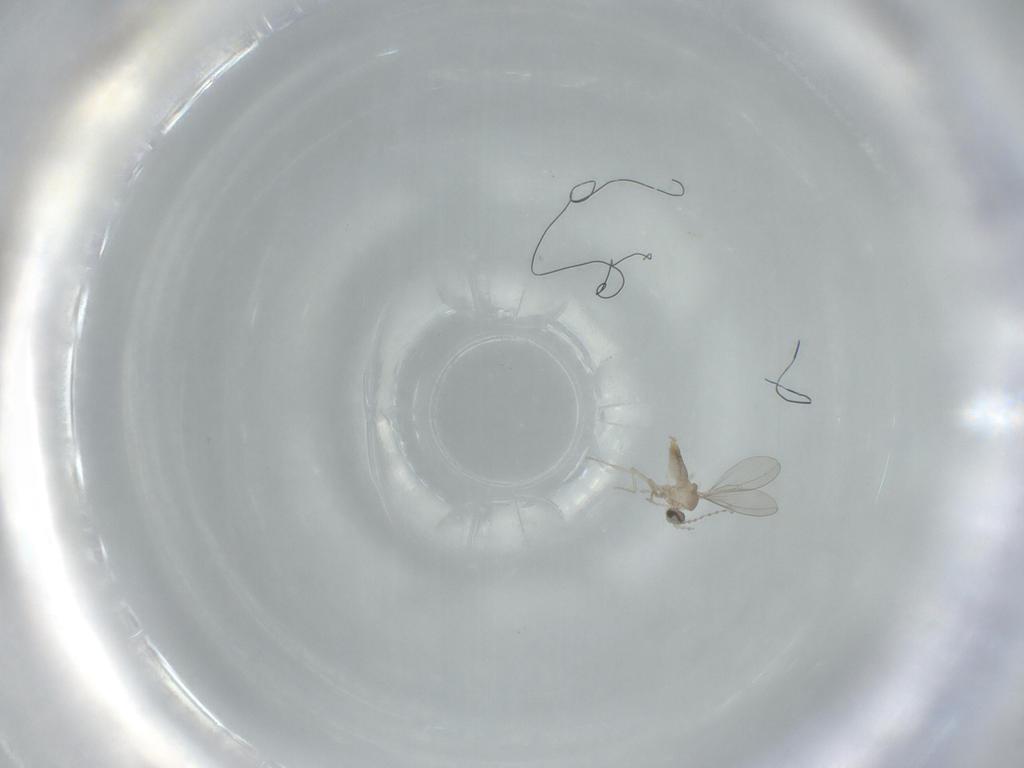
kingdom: Animalia
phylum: Arthropoda
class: Insecta
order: Diptera
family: Cecidomyiidae
